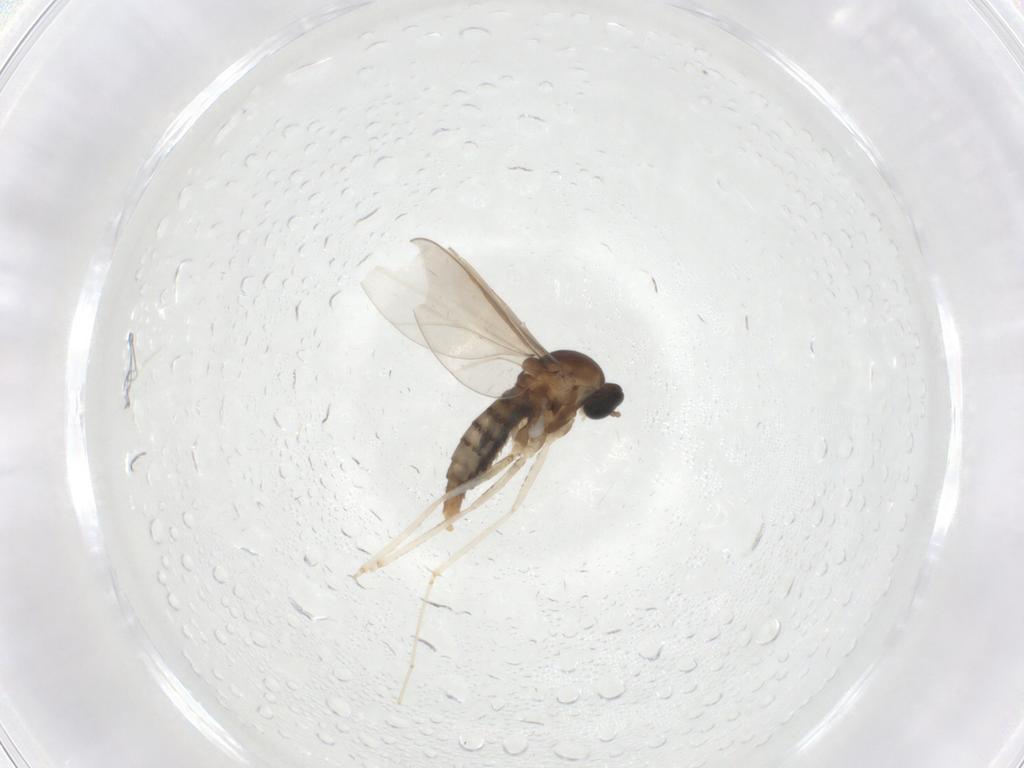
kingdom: Animalia
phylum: Arthropoda
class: Insecta
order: Diptera
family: Cecidomyiidae
